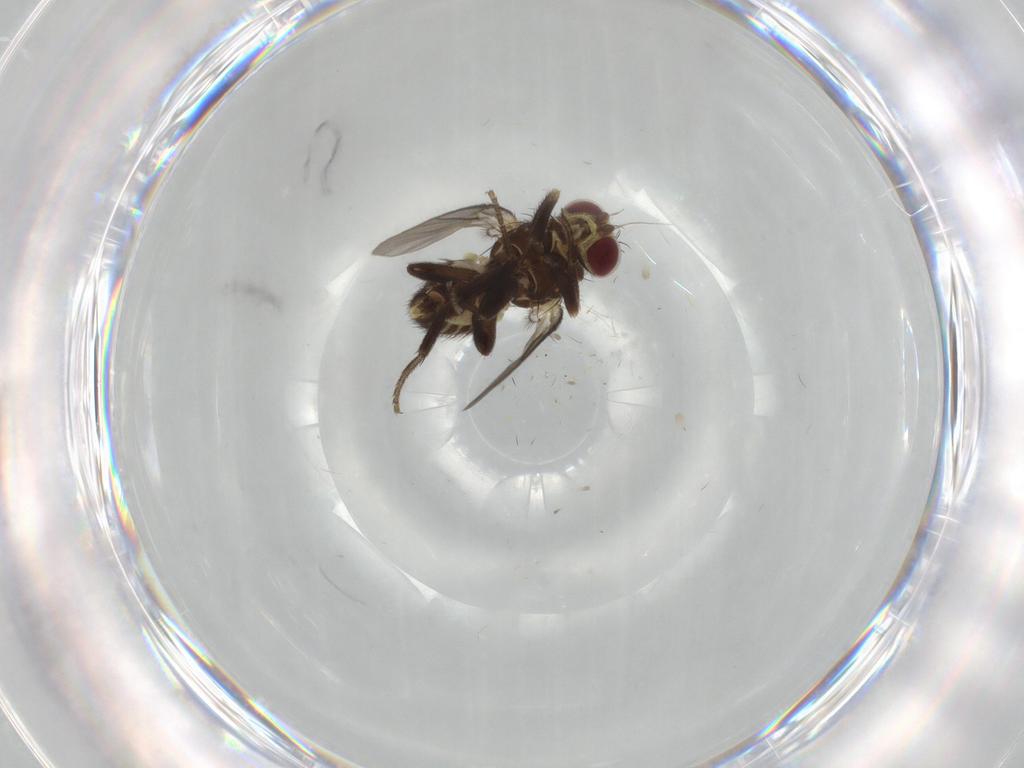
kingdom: Animalia
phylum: Arthropoda
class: Insecta
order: Diptera
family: Agromyzidae
